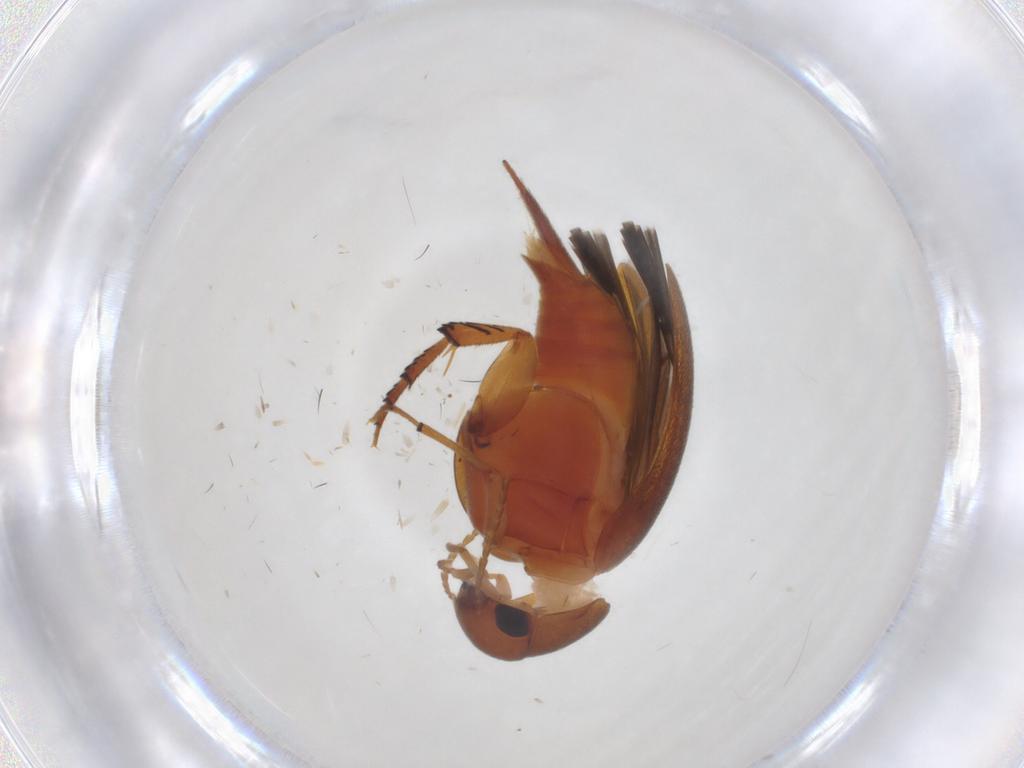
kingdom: Animalia
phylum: Arthropoda
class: Insecta
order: Coleoptera
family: Mordellidae
